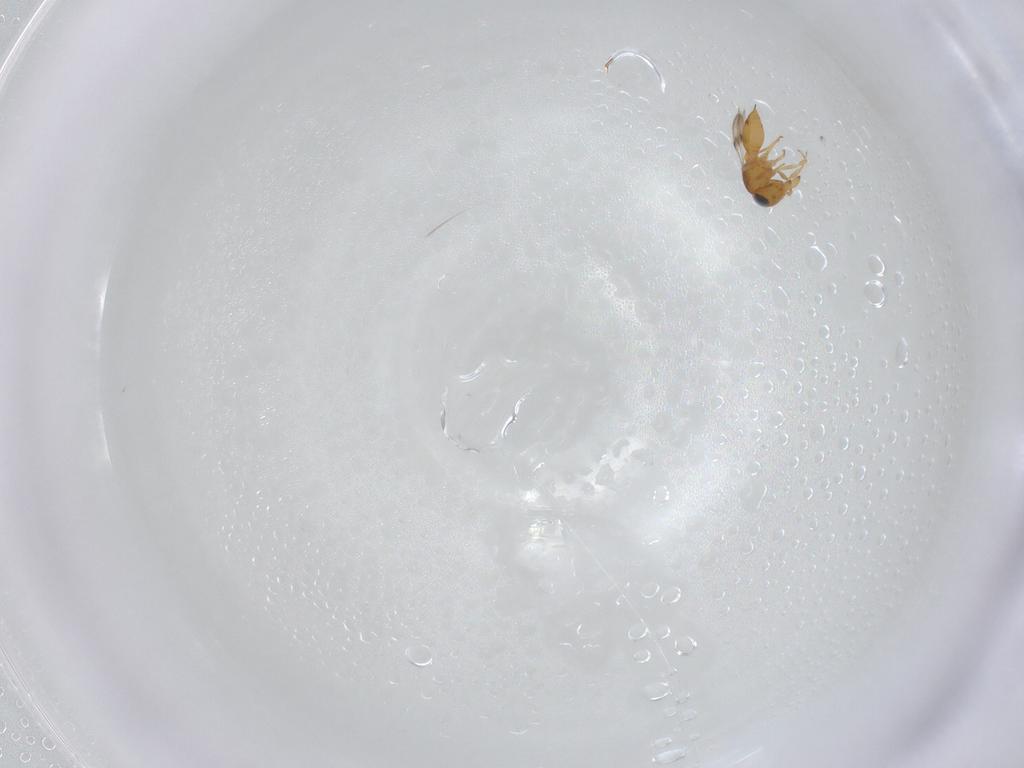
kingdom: Animalia
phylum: Arthropoda
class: Insecta
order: Hymenoptera
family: Scelionidae
